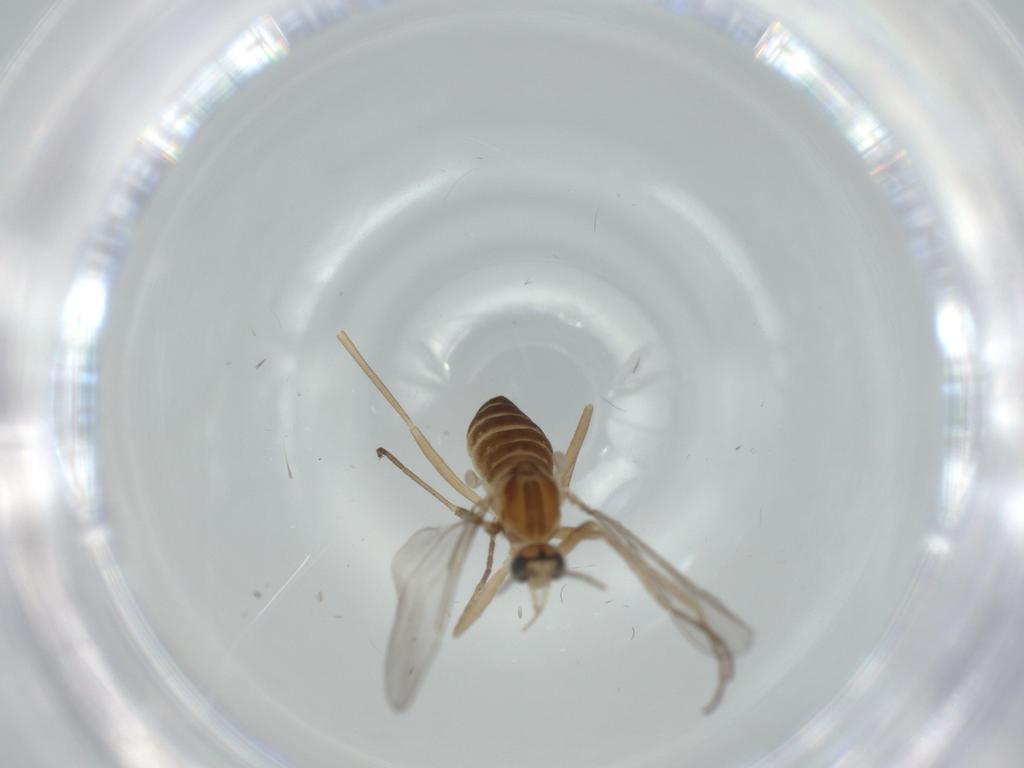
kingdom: Animalia
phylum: Arthropoda
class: Insecta
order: Diptera
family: Cecidomyiidae
